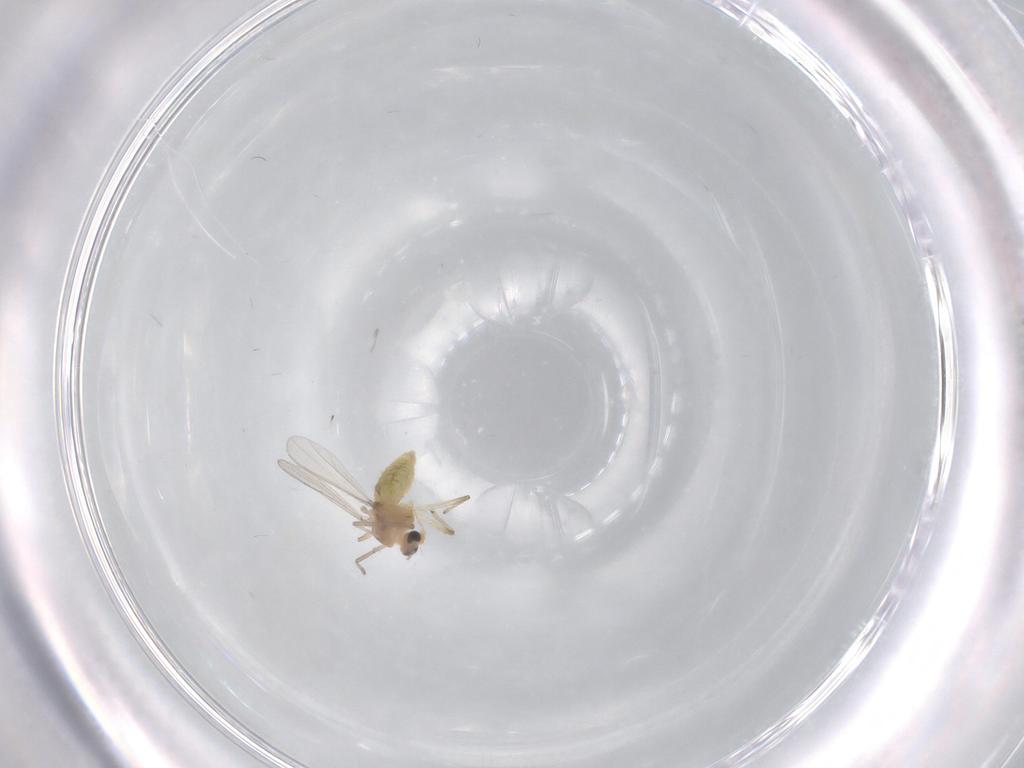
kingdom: Animalia
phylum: Arthropoda
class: Insecta
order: Diptera
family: Chironomidae
